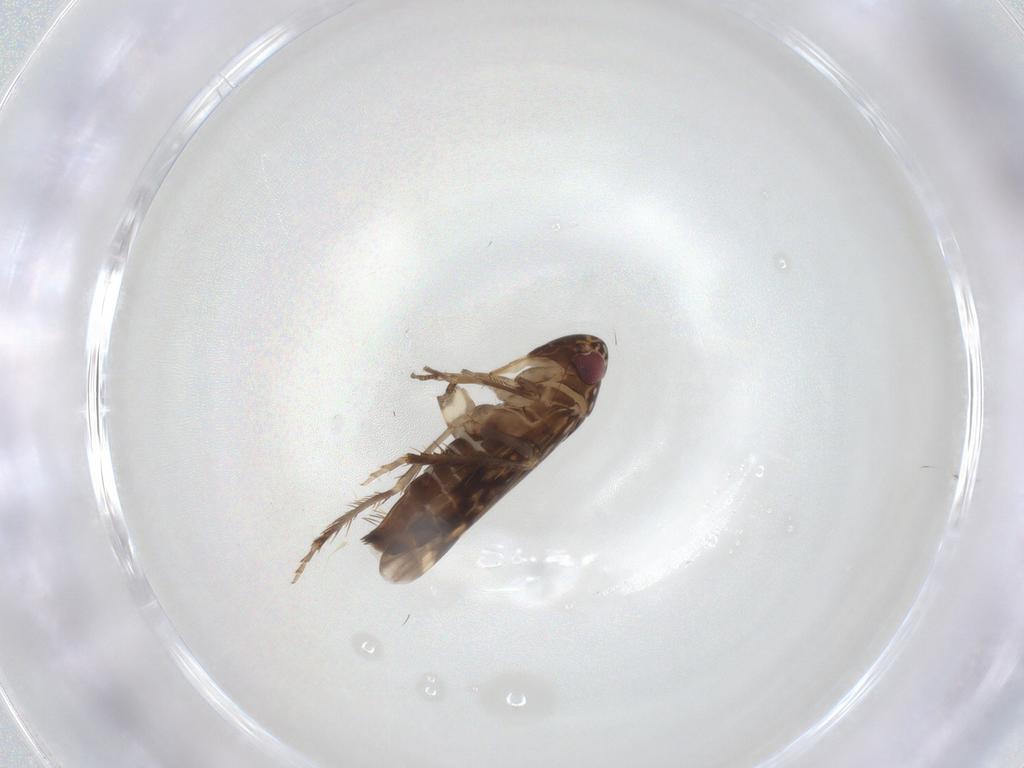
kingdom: Animalia
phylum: Arthropoda
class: Insecta
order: Hemiptera
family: Cicadellidae
